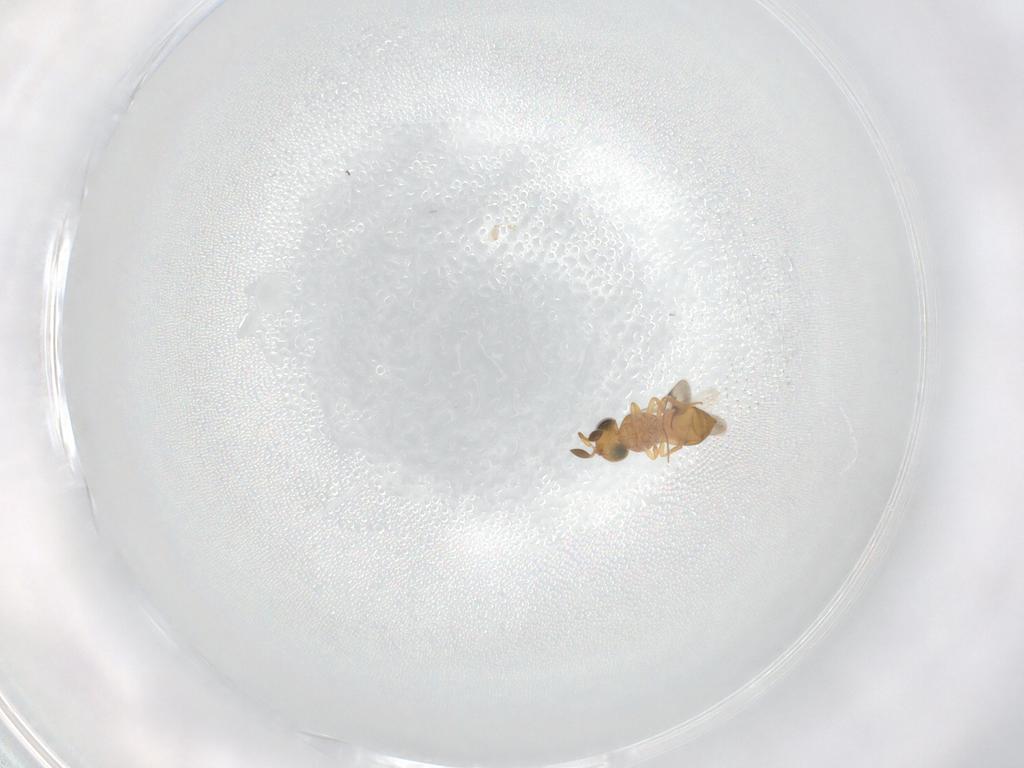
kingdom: Animalia
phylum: Arthropoda
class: Insecta
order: Hymenoptera
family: Scelionidae
